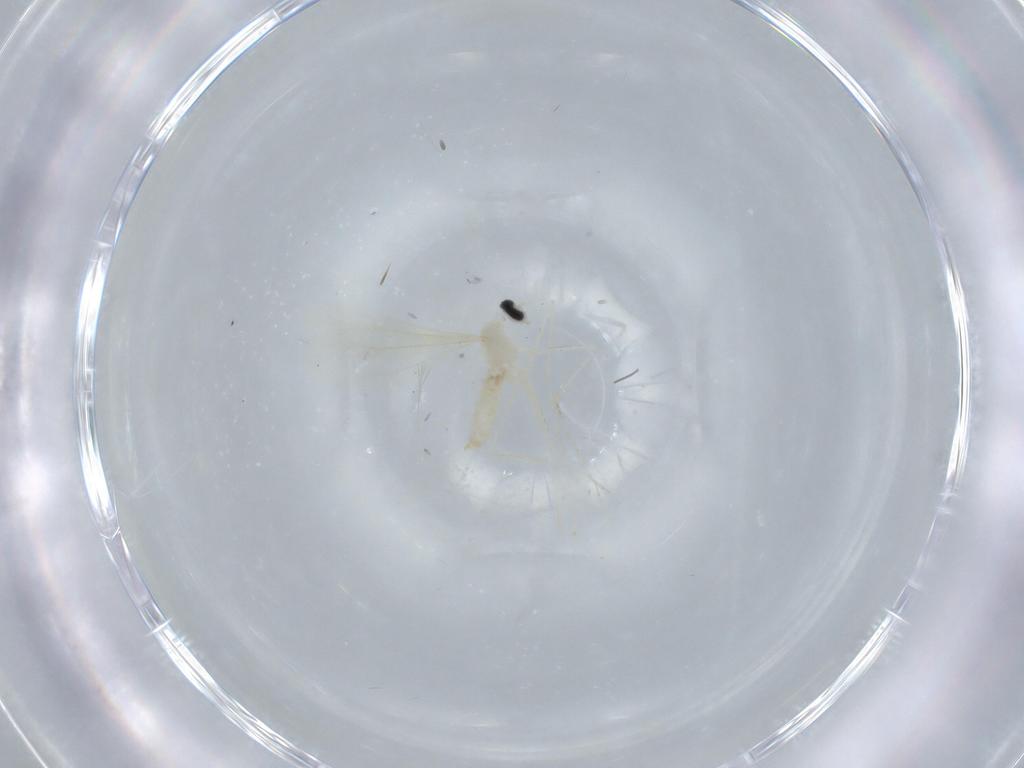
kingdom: Animalia
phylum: Arthropoda
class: Insecta
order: Diptera
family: Cecidomyiidae
